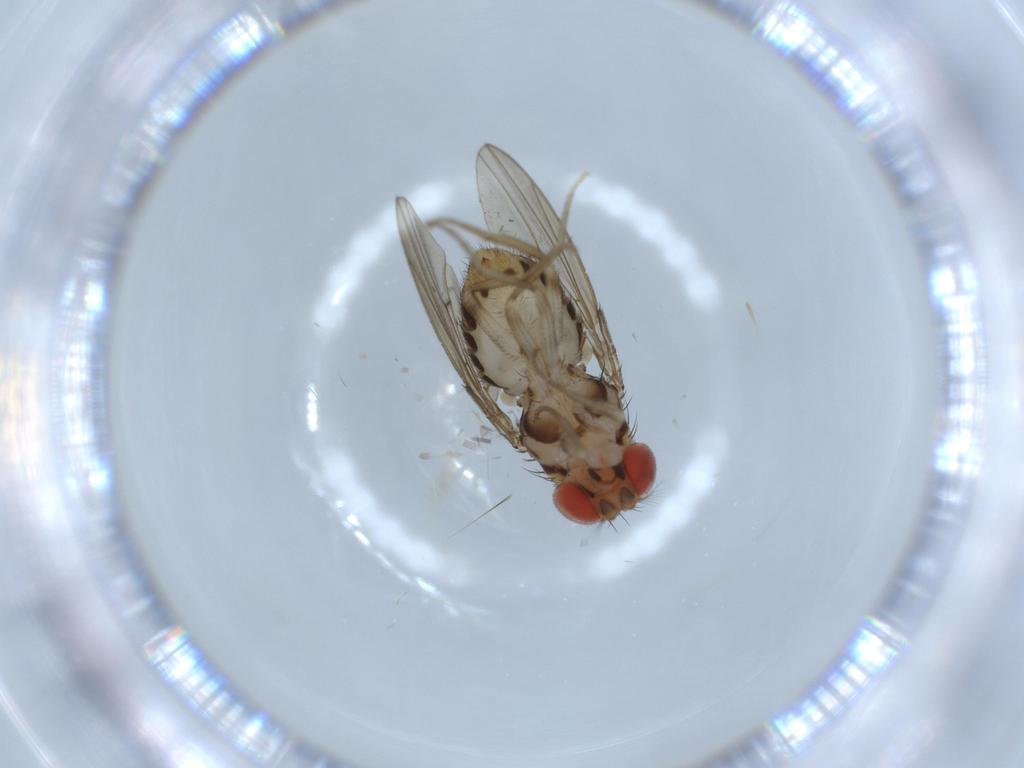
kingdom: Animalia
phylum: Arthropoda
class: Insecta
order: Diptera
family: Drosophilidae
